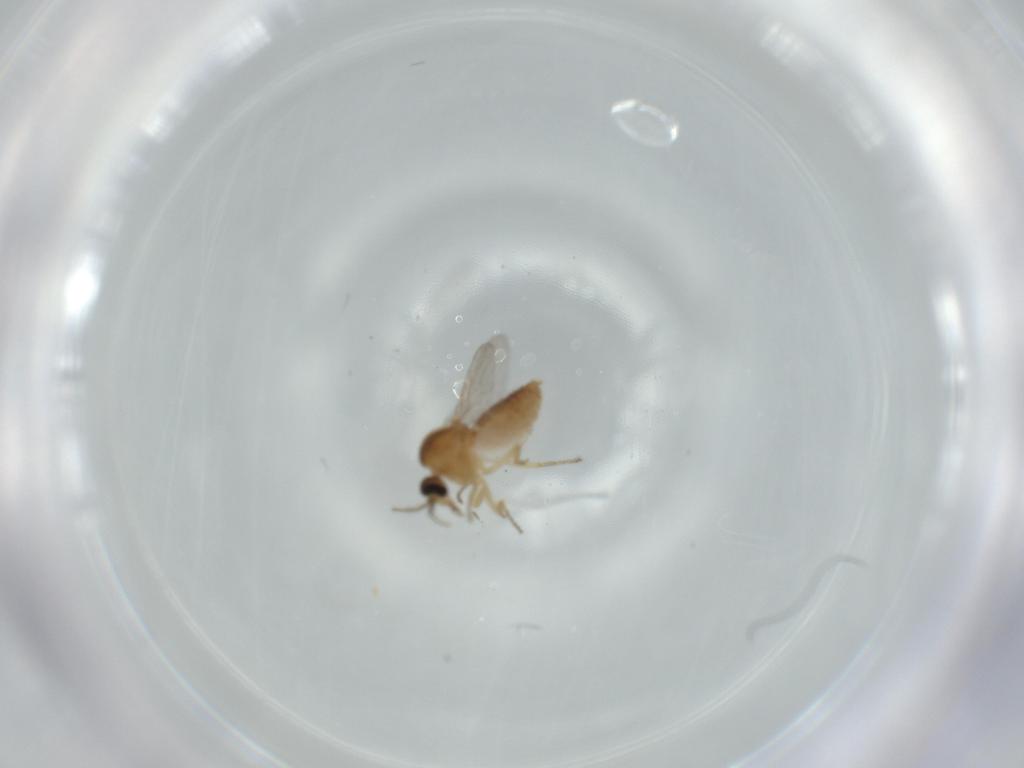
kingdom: Animalia
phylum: Arthropoda
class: Insecta
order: Diptera
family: Ceratopogonidae
